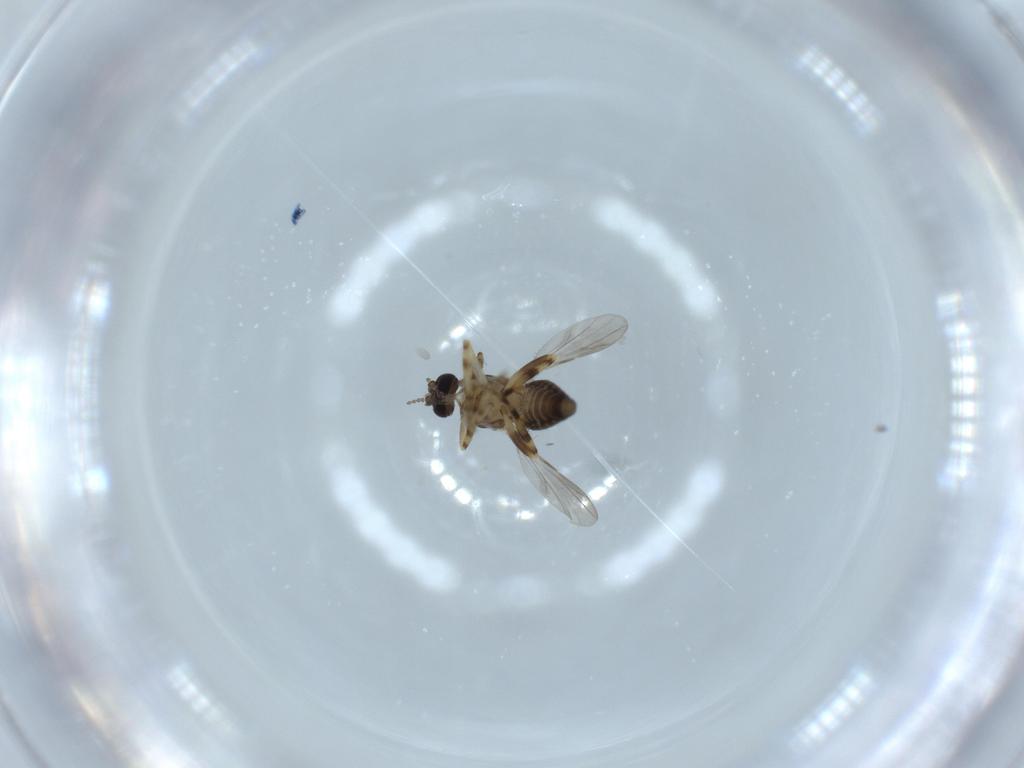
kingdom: Animalia
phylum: Arthropoda
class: Insecta
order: Diptera
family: Ceratopogonidae
